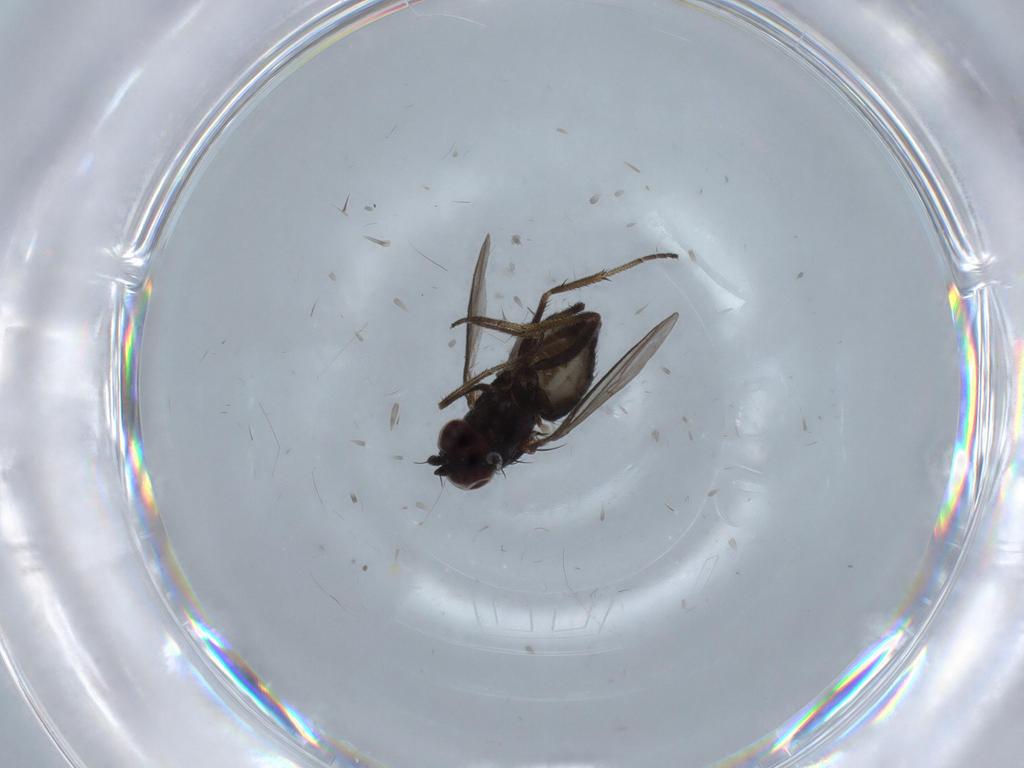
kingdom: Animalia
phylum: Arthropoda
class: Insecta
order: Diptera
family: Dolichopodidae
